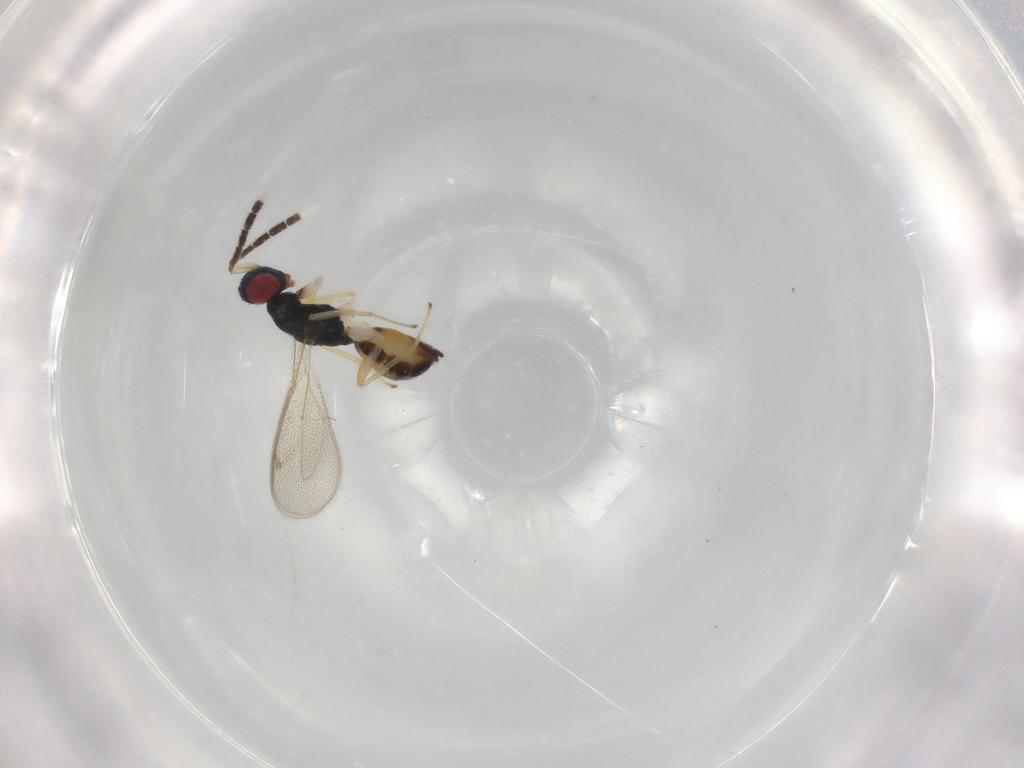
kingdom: Animalia
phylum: Arthropoda
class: Insecta
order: Hymenoptera
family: Eulophidae
